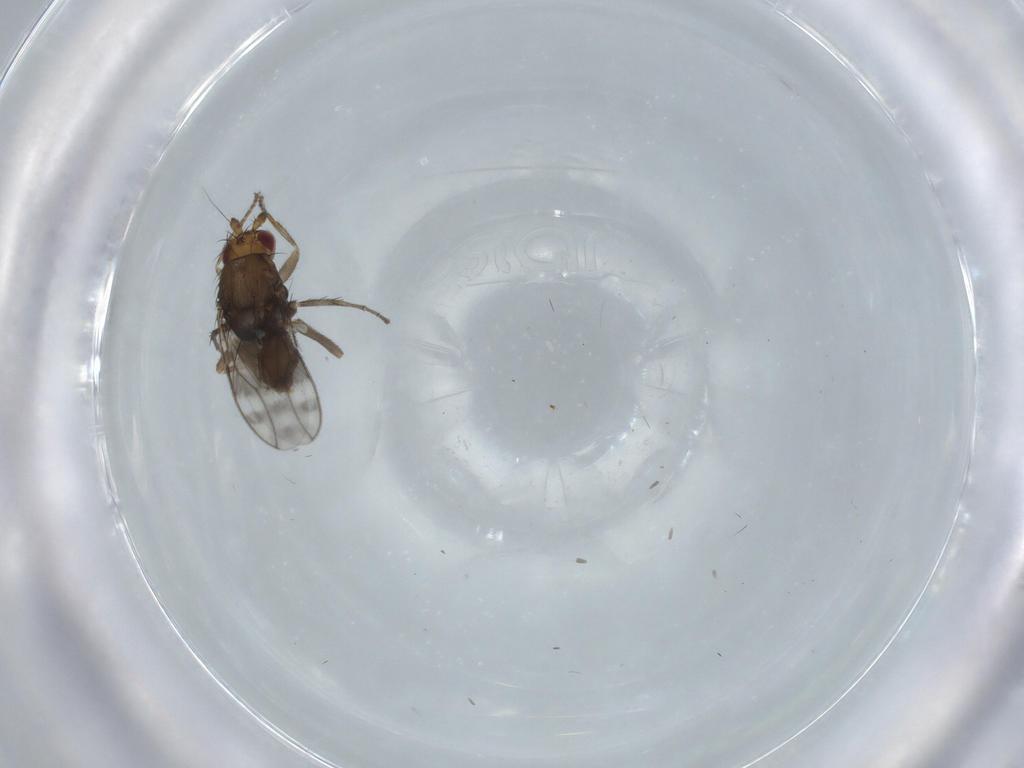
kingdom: Animalia
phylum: Arthropoda
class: Insecta
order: Diptera
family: Sphaeroceridae
